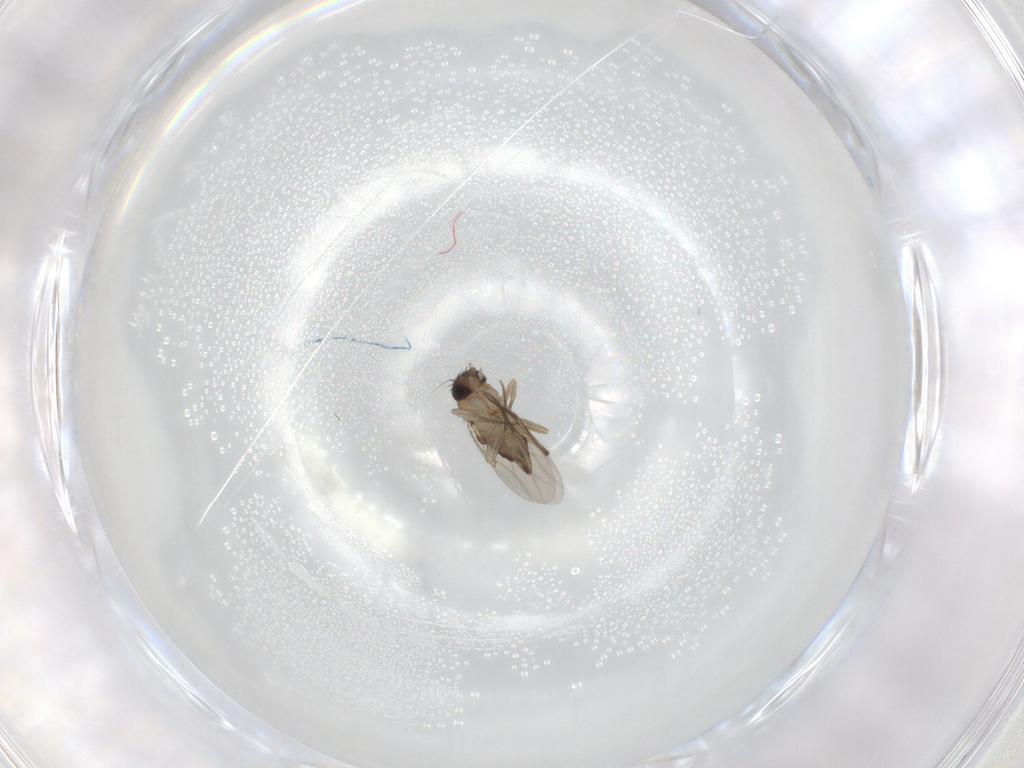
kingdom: Animalia
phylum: Arthropoda
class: Insecta
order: Diptera
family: Phoridae
